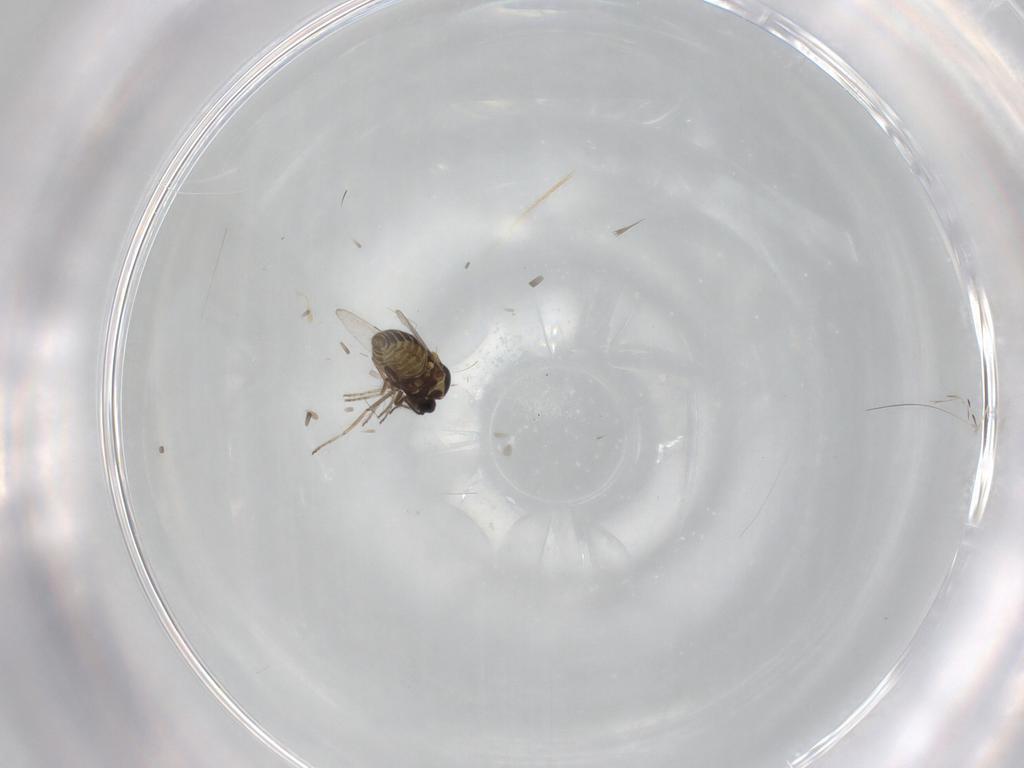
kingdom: Animalia
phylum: Arthropoda
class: Insecta
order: Diptera
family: Ceratopogonidae
